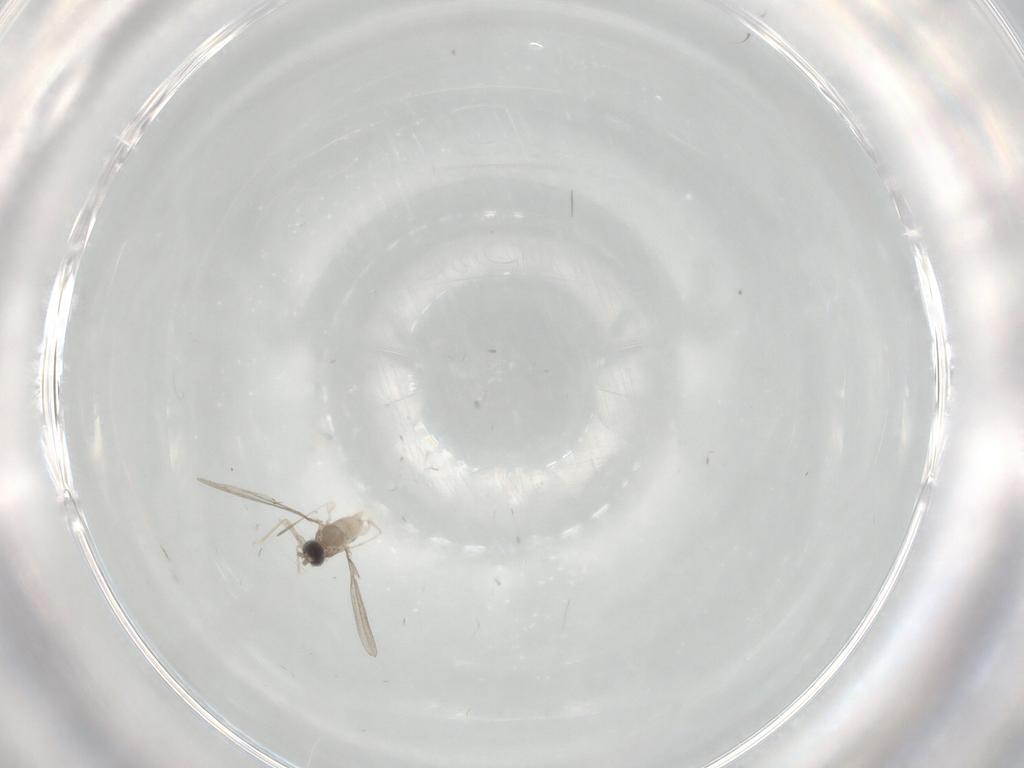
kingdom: Animalia
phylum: Arthropoda
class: Insecta
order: Diptera
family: Cecidomyiidae
